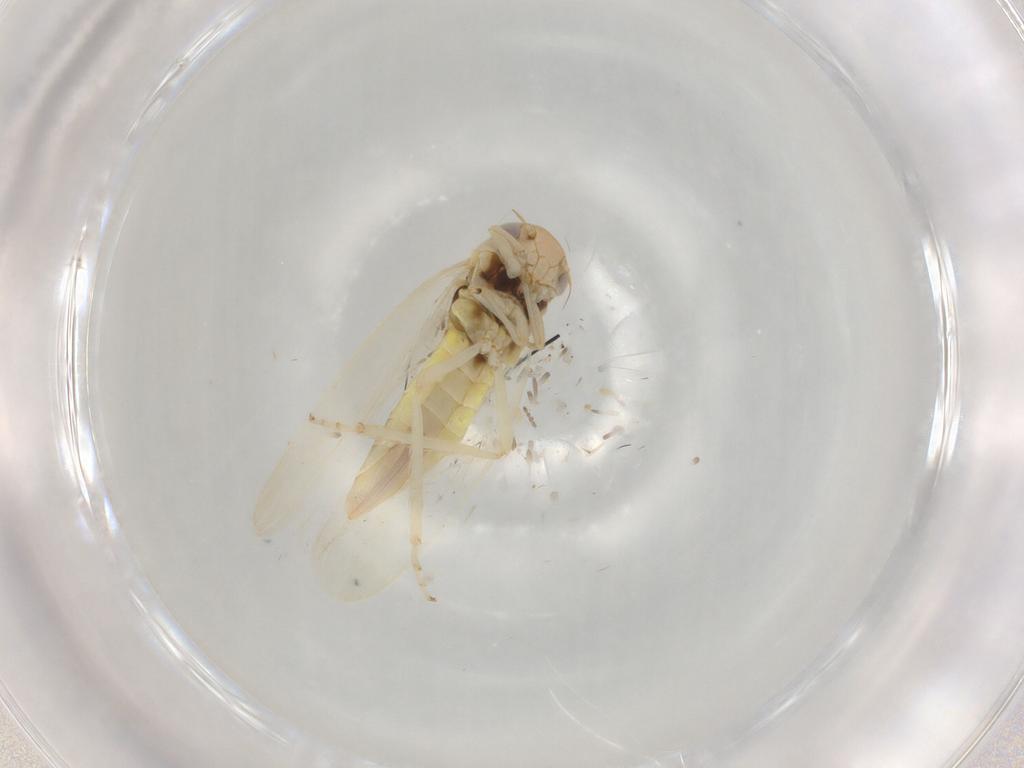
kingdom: Animalia
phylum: Arthropoda
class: Insecta
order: Hemiptera
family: Cicadellidae
